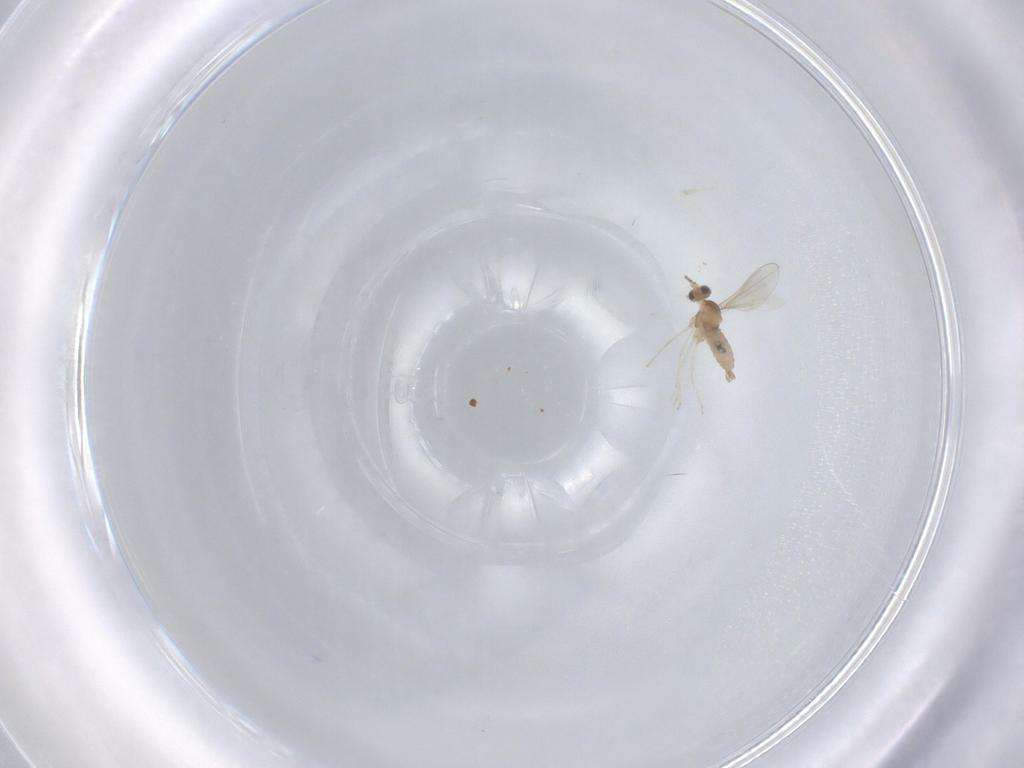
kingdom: Animalia
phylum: Arthropoda
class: Insecta
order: Diptera
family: Cecidomyiidae
